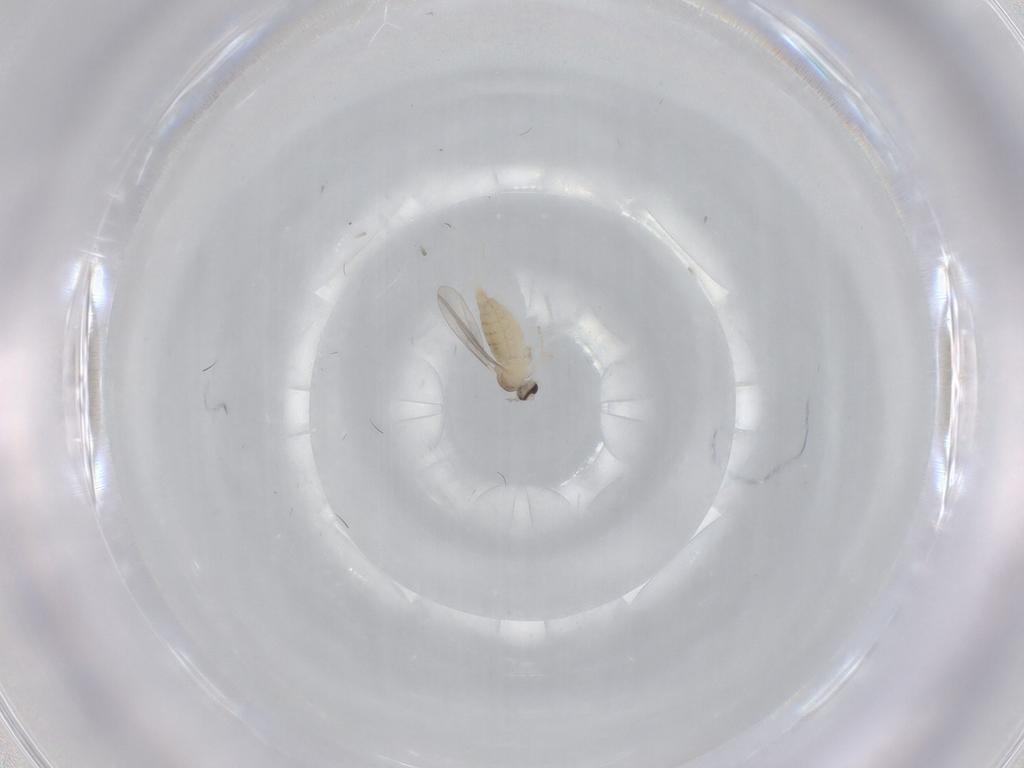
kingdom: Animalia
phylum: Arthropoda
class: Insecta
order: Diptera
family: Cecidomyiidae
